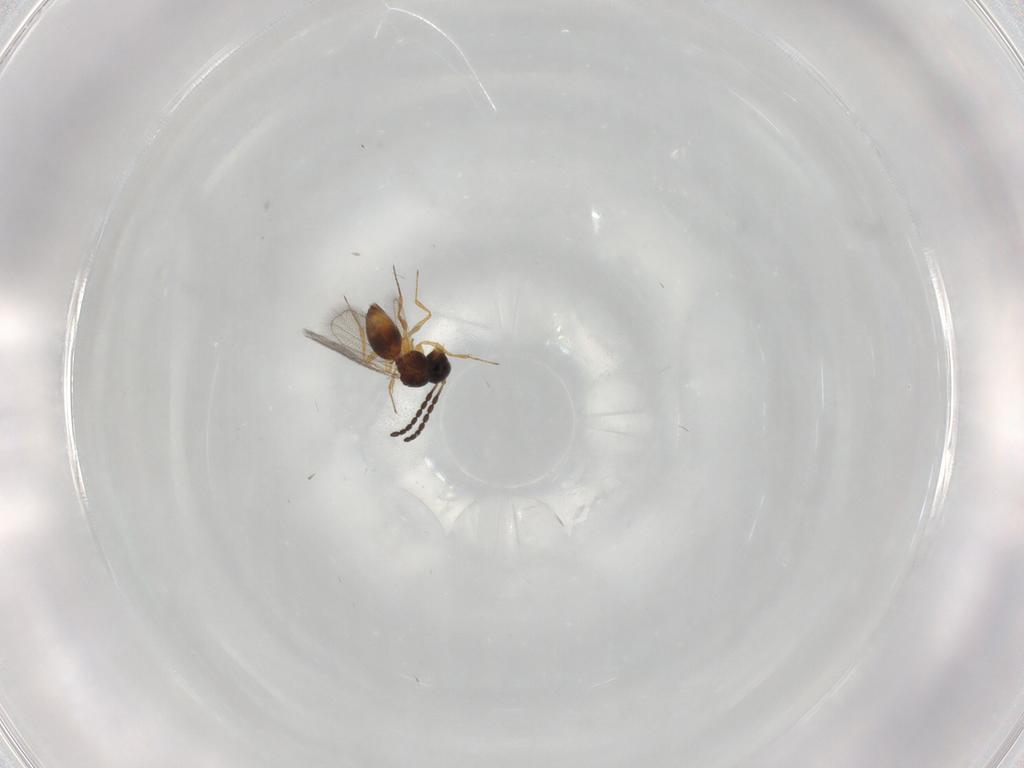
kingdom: Animalia
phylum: Arthropoda
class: Insecta
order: Hymenoptera
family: Figitidae
